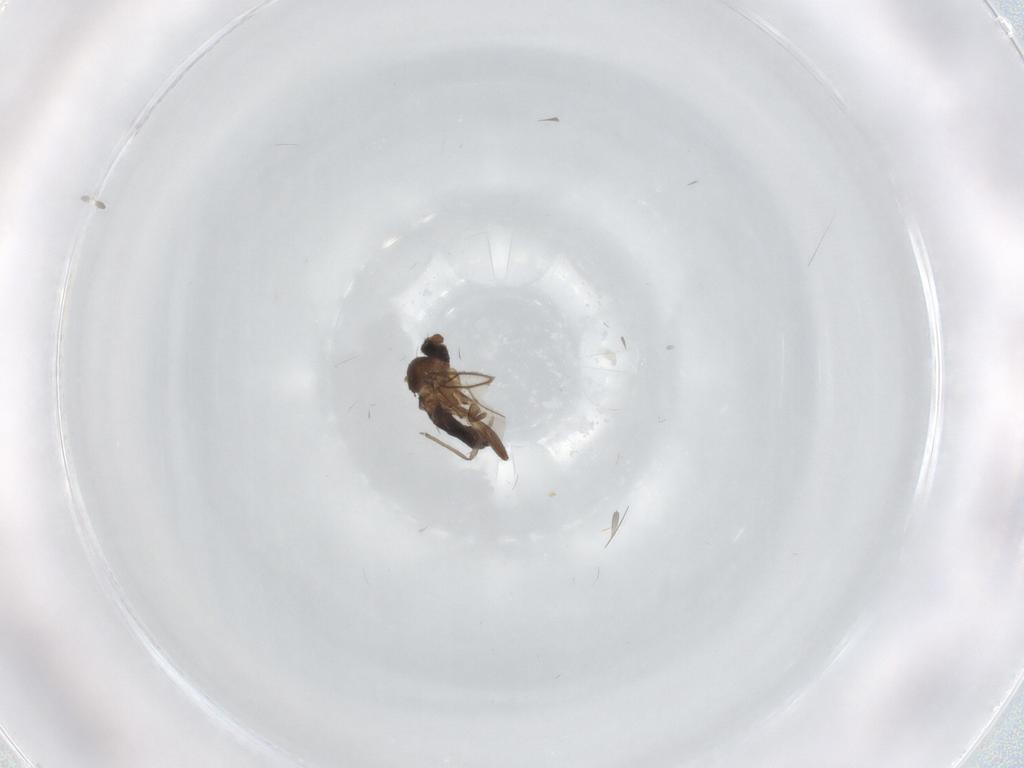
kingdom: Animalia
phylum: Arthropoda
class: Insecta
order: Diptera
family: Phoridae
